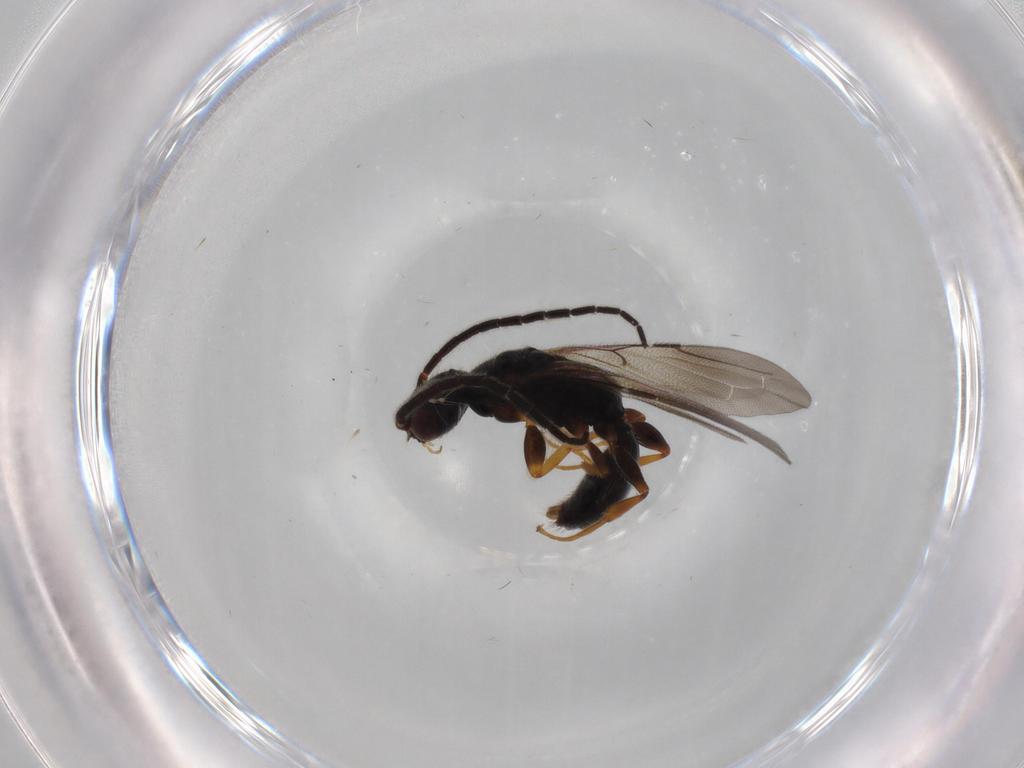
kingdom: Animalia
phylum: Arthropoda
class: Insecta
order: Hymenoptera
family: Bethylidae
